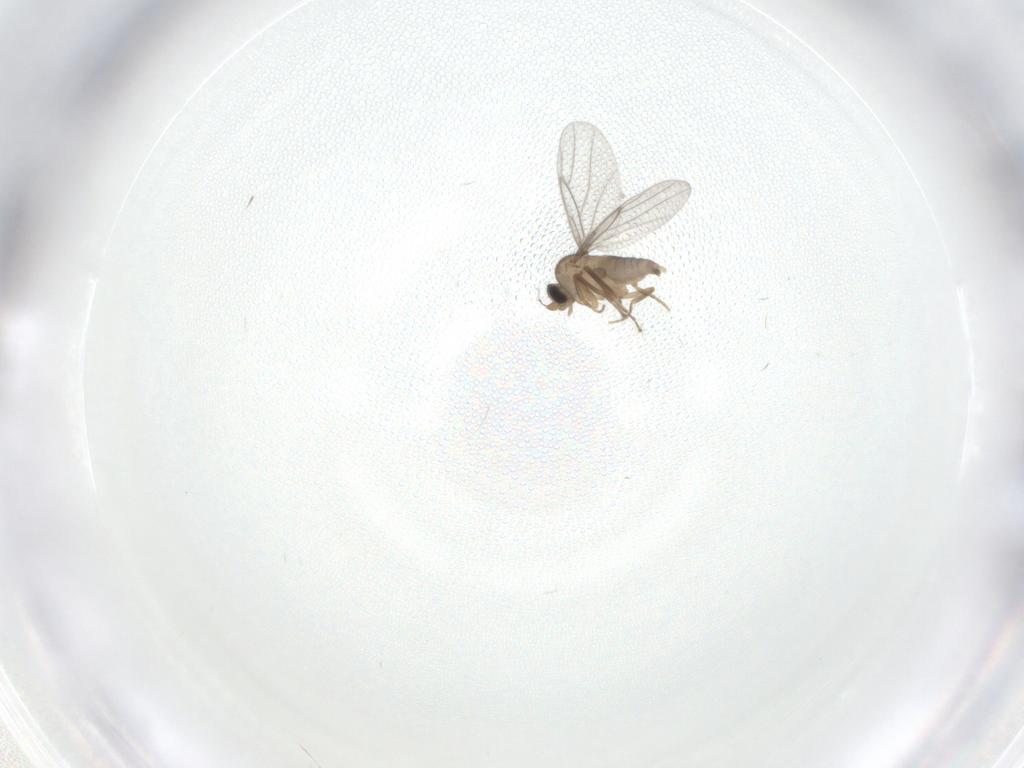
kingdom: Animalia
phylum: Arthropoda
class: Insecta
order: Diptera
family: Syrphidae
